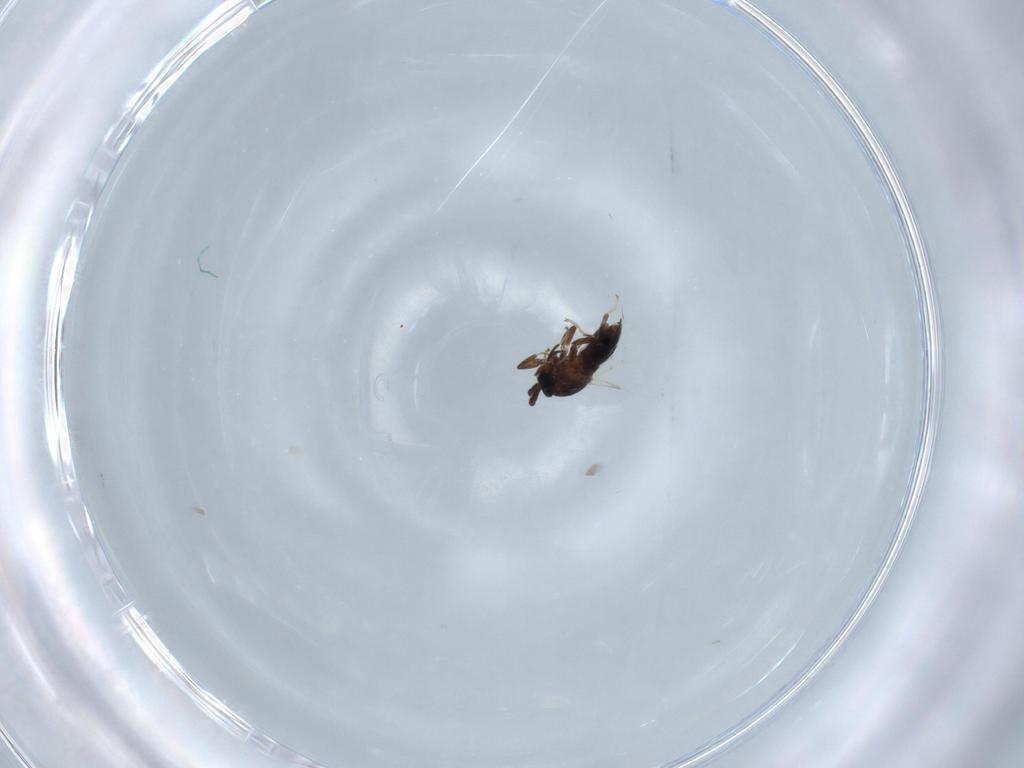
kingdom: Animalia
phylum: Arthropoda
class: Insecta
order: Diptera
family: Scatopsidae
